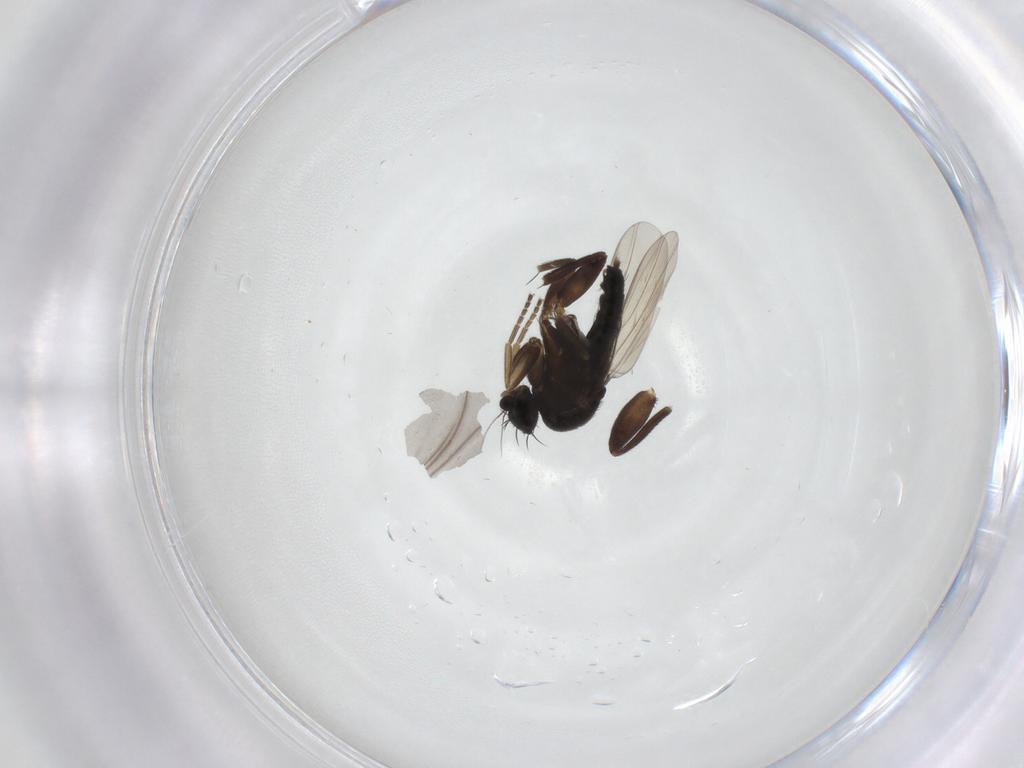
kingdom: Animalia
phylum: Arthropoda
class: Insecta
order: Diptera
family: Phoridae
